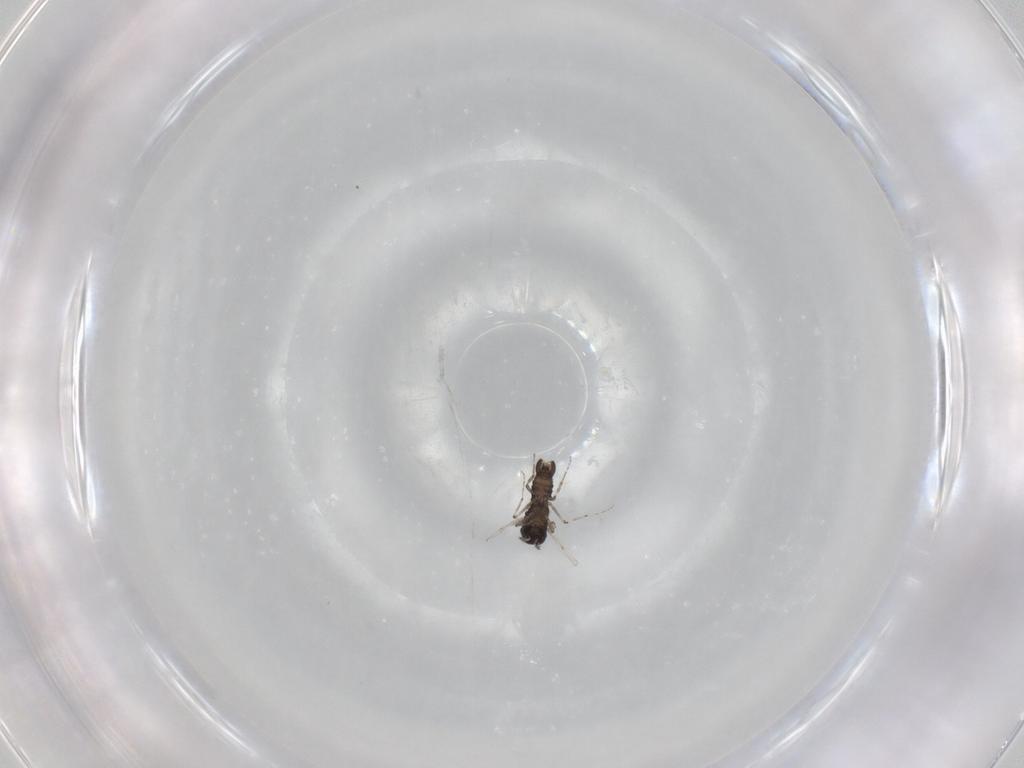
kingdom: Animalia
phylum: Arthropoda
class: Insecta
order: Diptera
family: Ceratopogonidae
